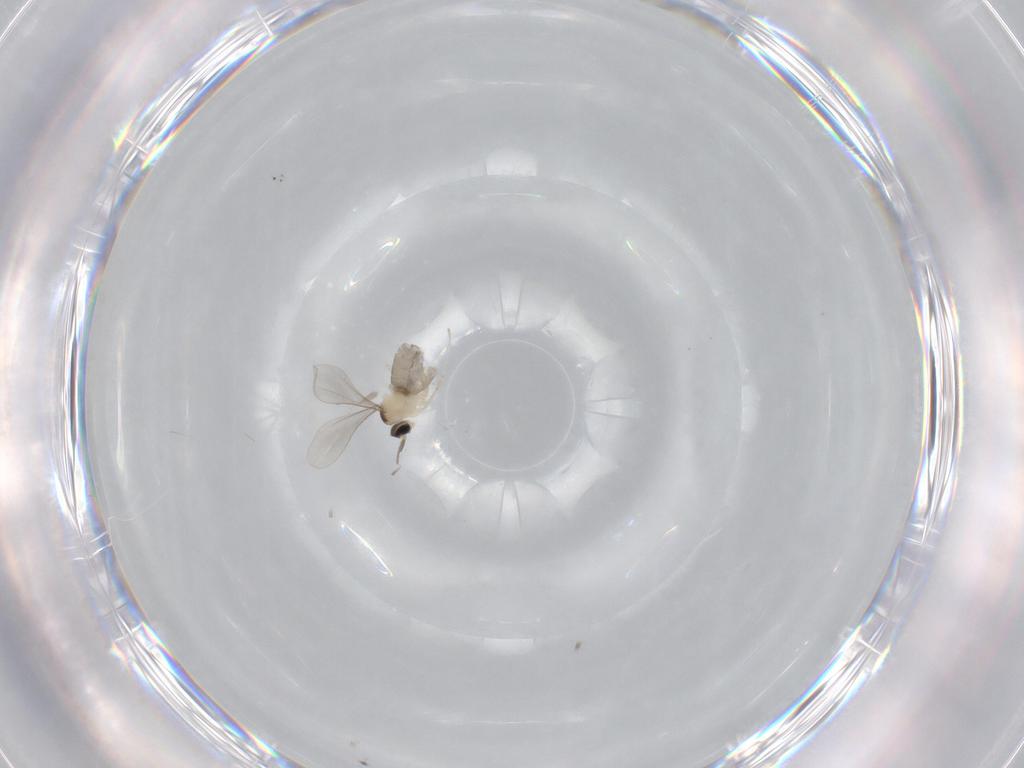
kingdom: Animalia
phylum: Arthropoda
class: Insecta
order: Diptera
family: Cecidomyiidae
